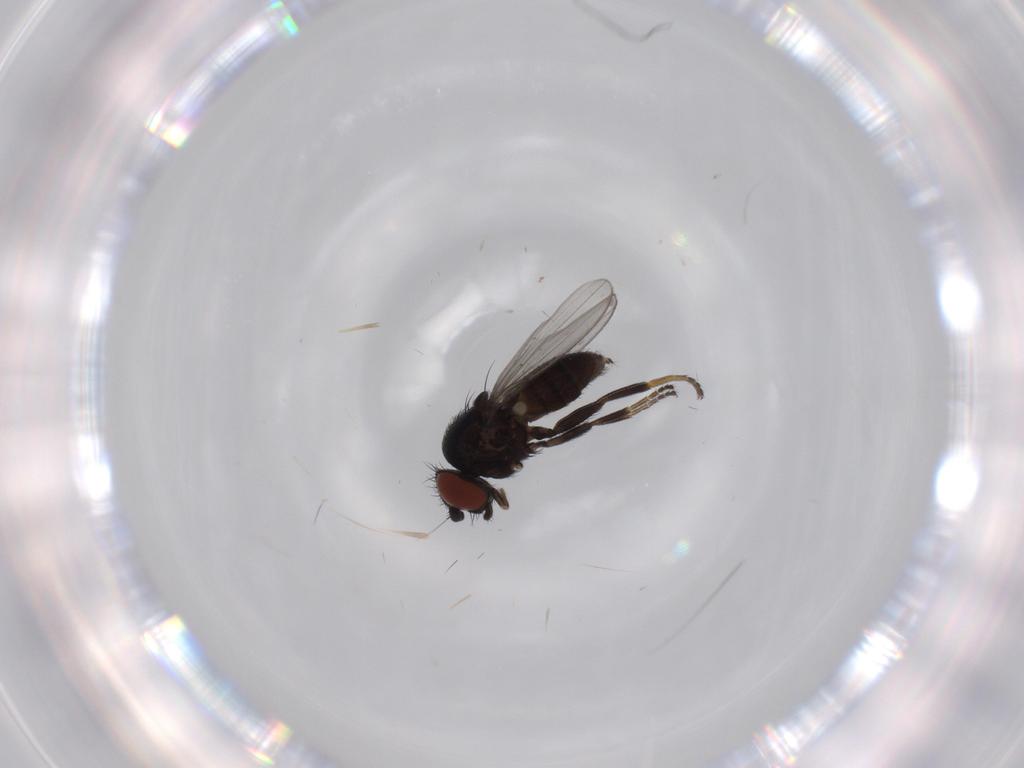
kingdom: Animalia
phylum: Arthropoda
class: Insecta
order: Diptera
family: Milichiidae
